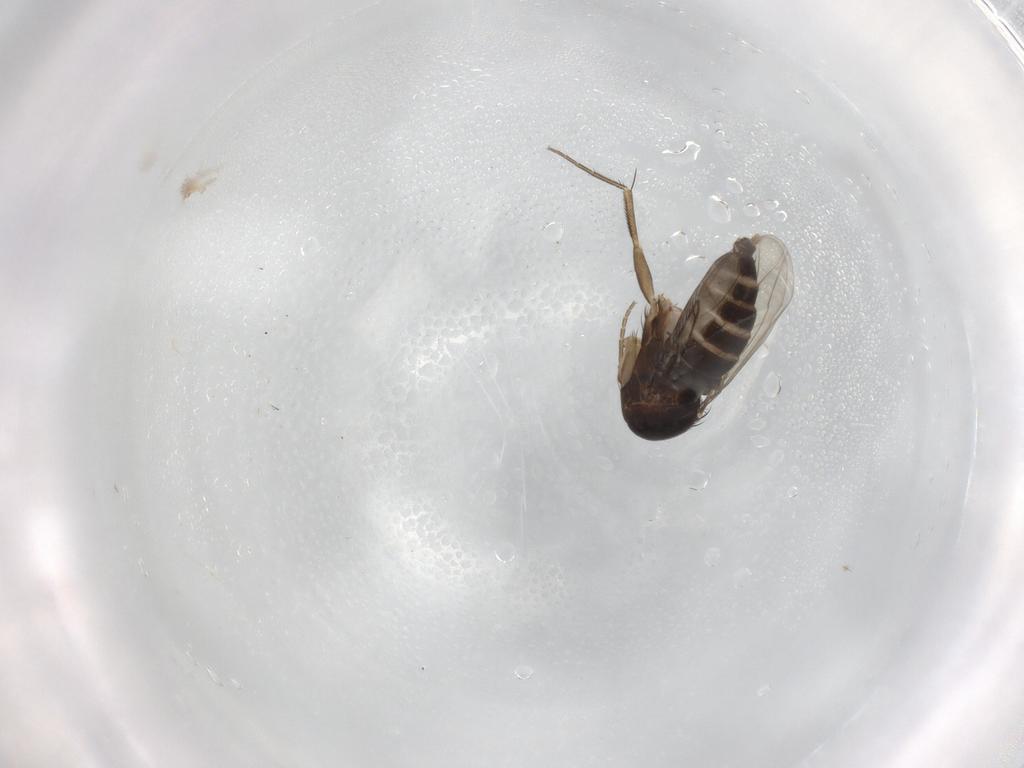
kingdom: Animalia
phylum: Arthropoda
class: Insecta
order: Diptera
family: Phoridae
